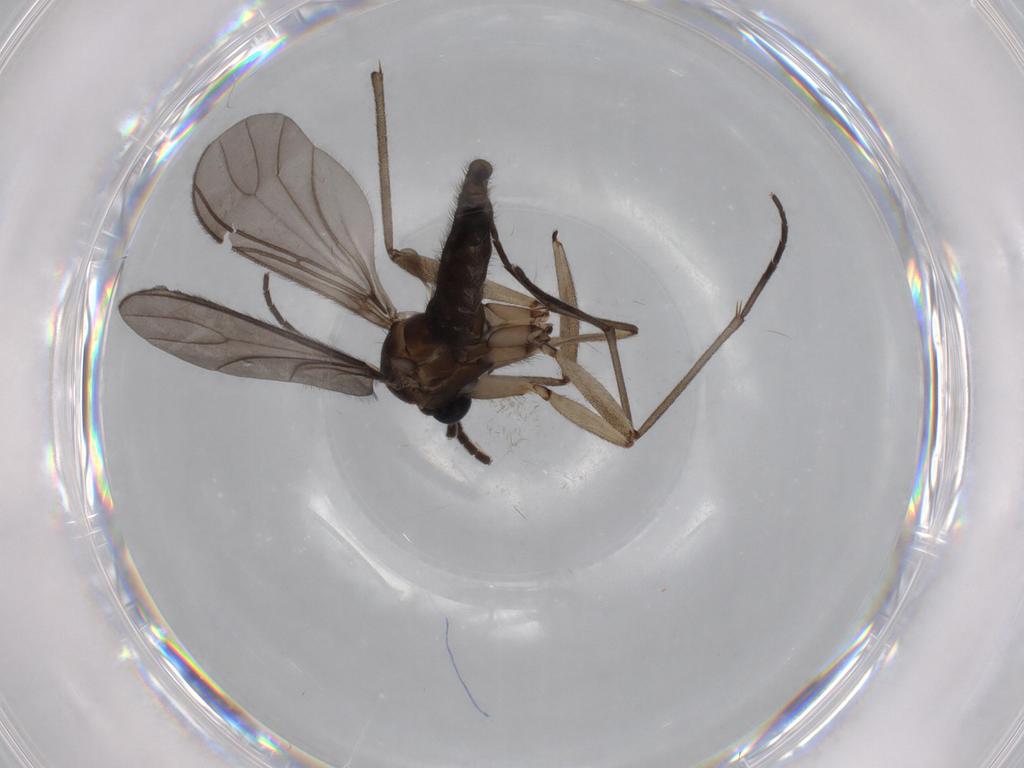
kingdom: Animalia
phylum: Arthropoda
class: Insecta
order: Diptera
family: Sciaridae
